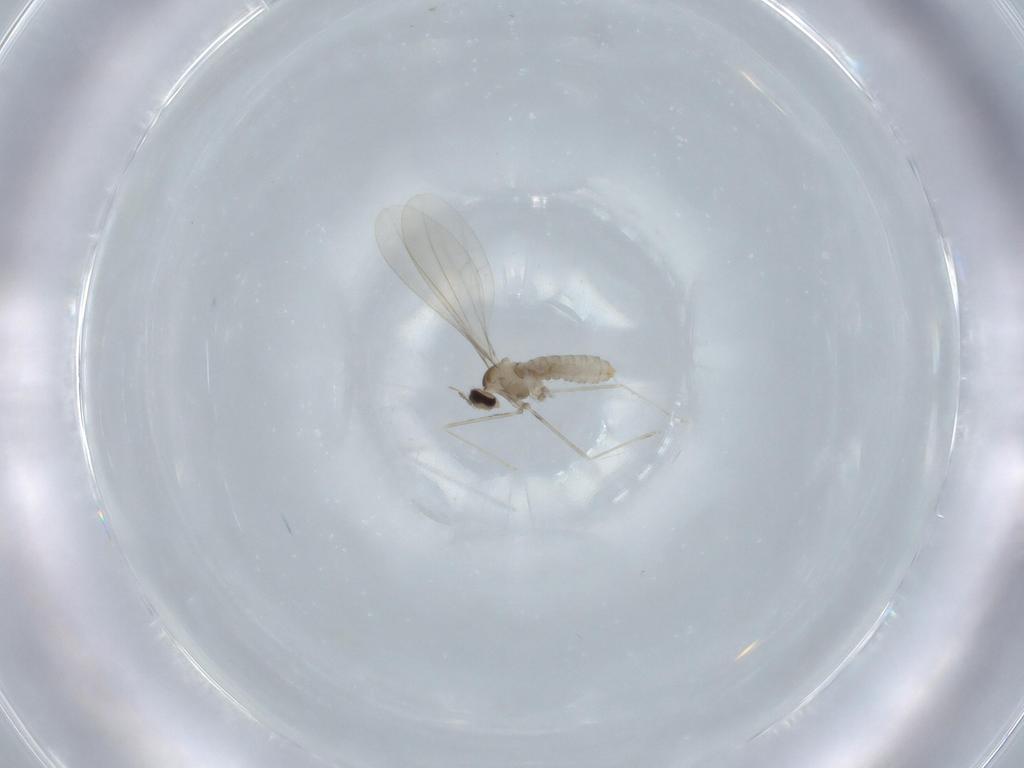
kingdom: Animalia
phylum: Arthropoda
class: Insecta
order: Diptera
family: Cecidomyiidae
